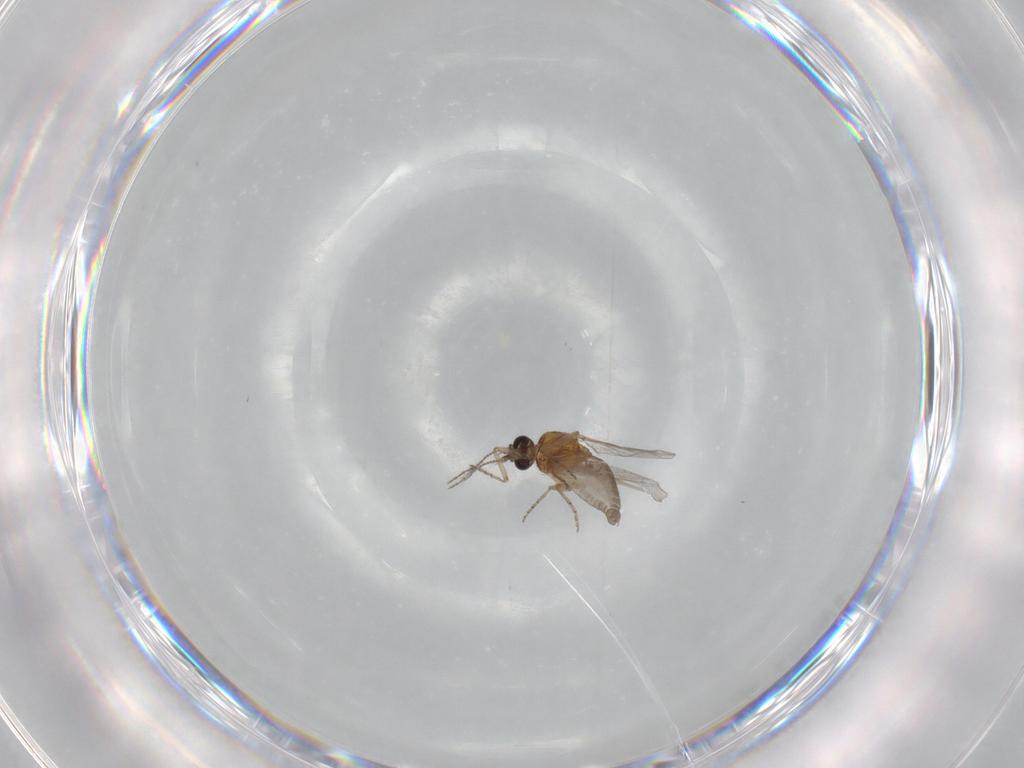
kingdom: Animalia
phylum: Arthropoda
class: Insecta
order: Diptera
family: Ceratopogonidae
